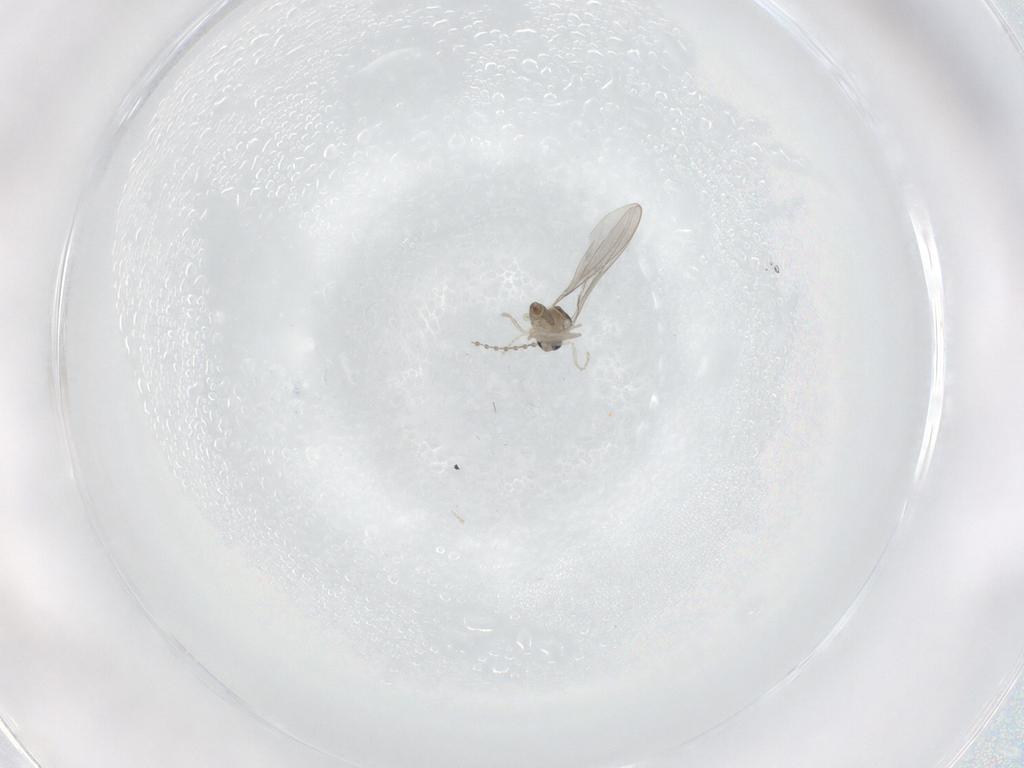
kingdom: Animalia
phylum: Arthropoda
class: Insecta
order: Diptera
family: Cecidomyiidae
